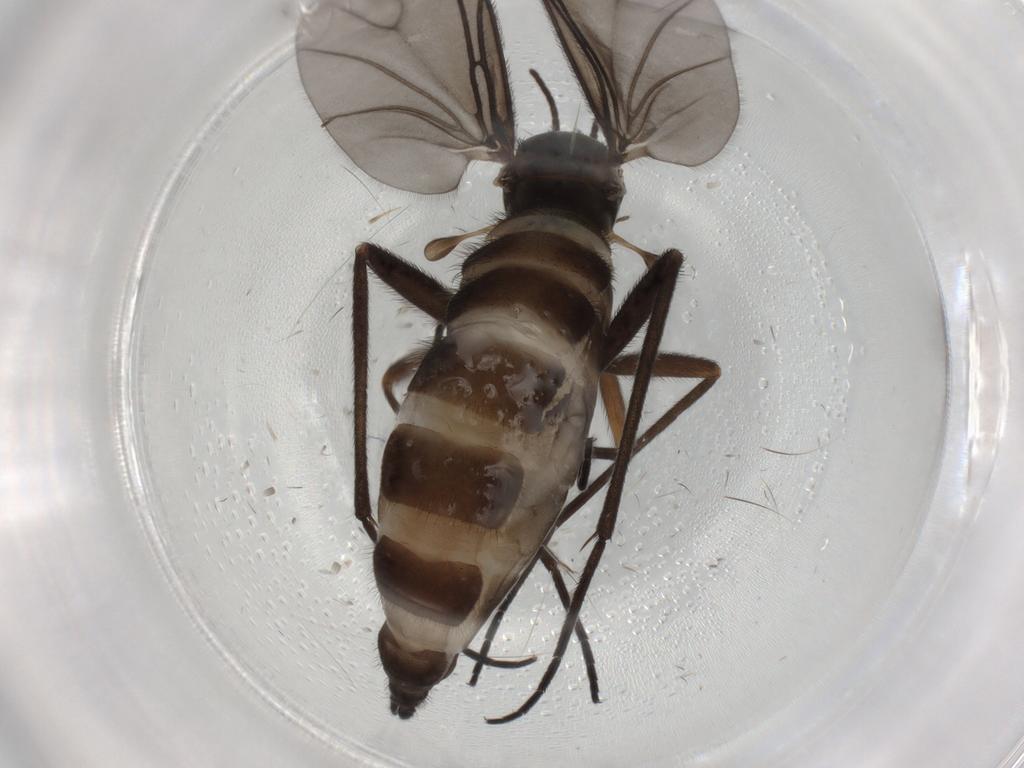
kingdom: Animalia
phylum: Arthropoda
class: Insecta
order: Diptera
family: Sciaridae
